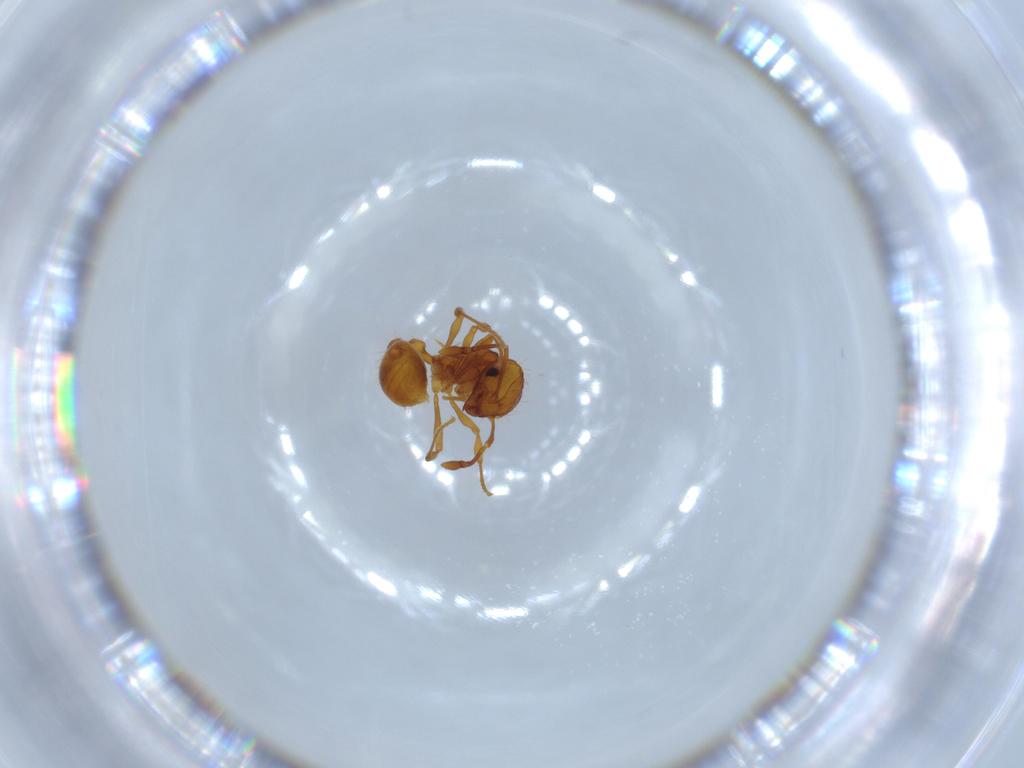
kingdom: Animalia
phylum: Arthropoda
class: Insecta
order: Hymenoptera
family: Formicidae
